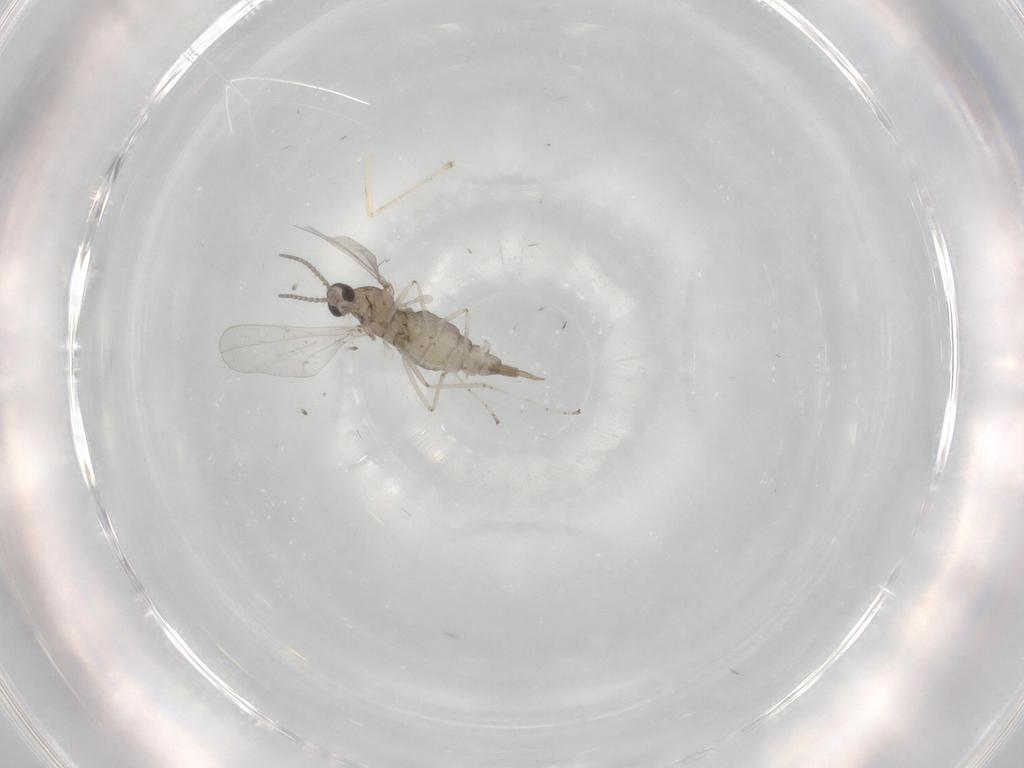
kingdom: Animalia
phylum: Arthropoda
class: Insecta
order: Diptera
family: Cecidomyiidae
